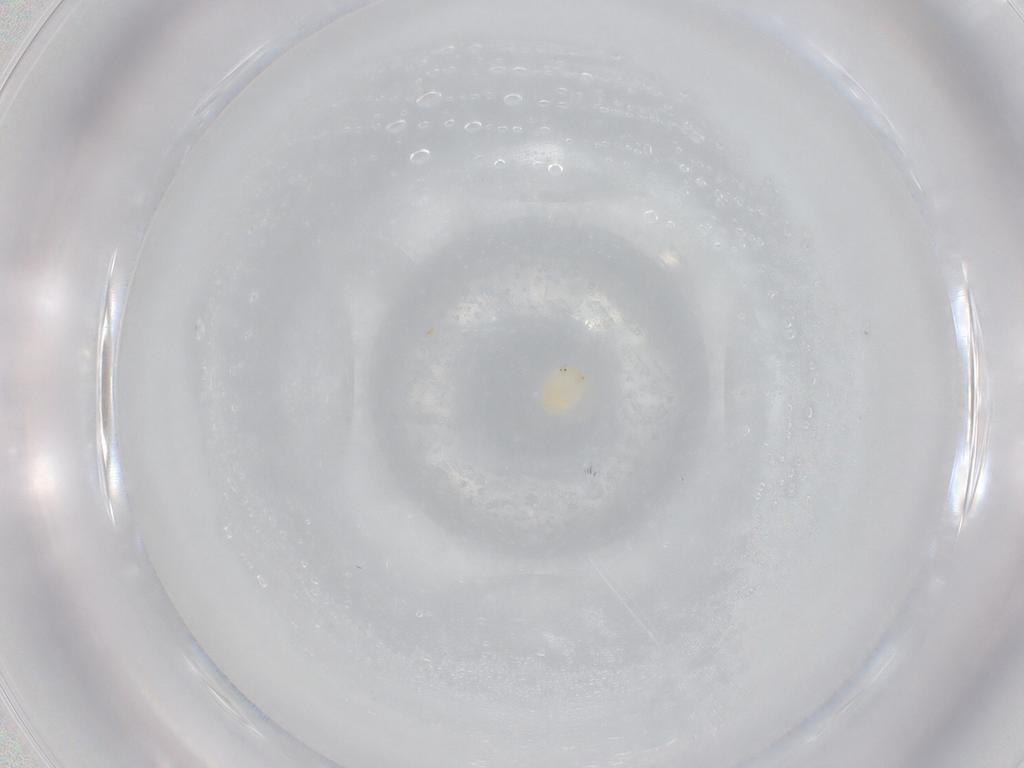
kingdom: Animalia
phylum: Arthropoda
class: Arachnida
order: Trombidiformes
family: Hydryphantidae
